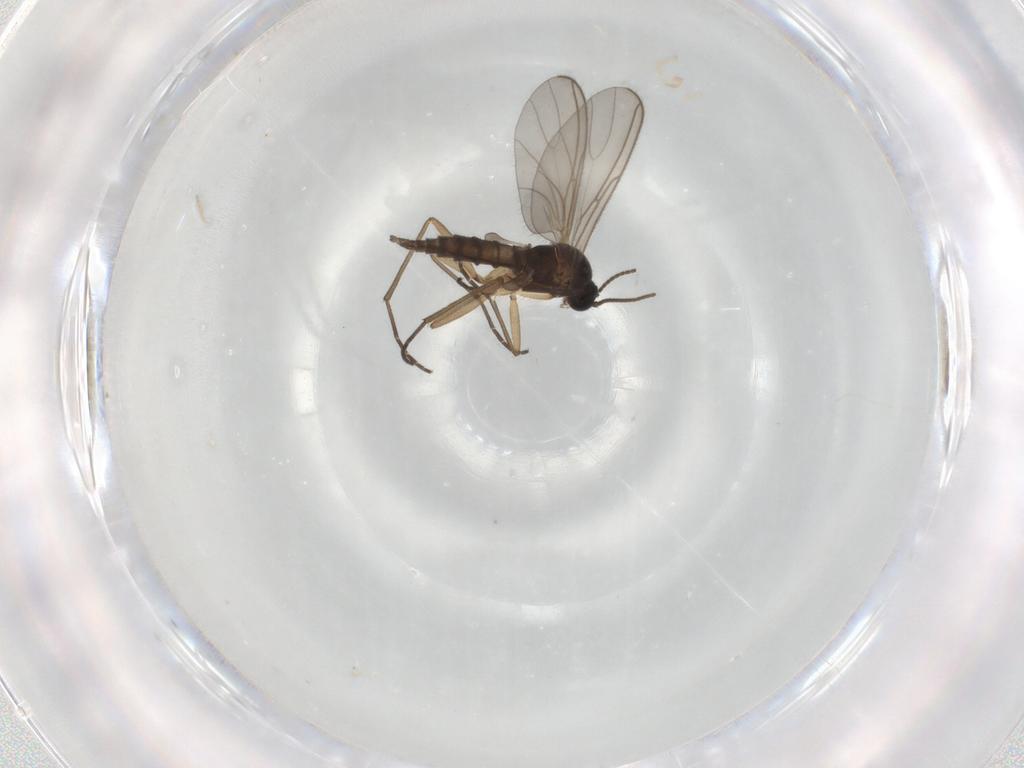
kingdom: Animalia
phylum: Arthropoda
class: Insecta
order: Diptera
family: Sciaridae
